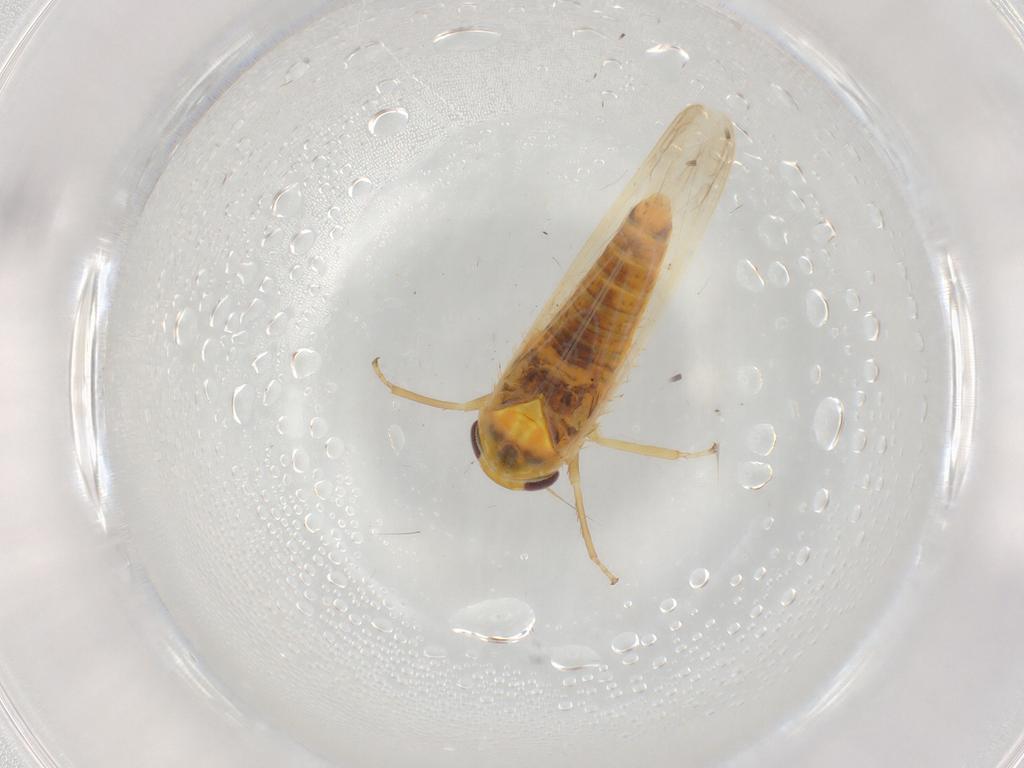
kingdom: Animalia
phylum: Arthropoda
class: Insecta
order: Hemiptera
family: Cicadellidae
